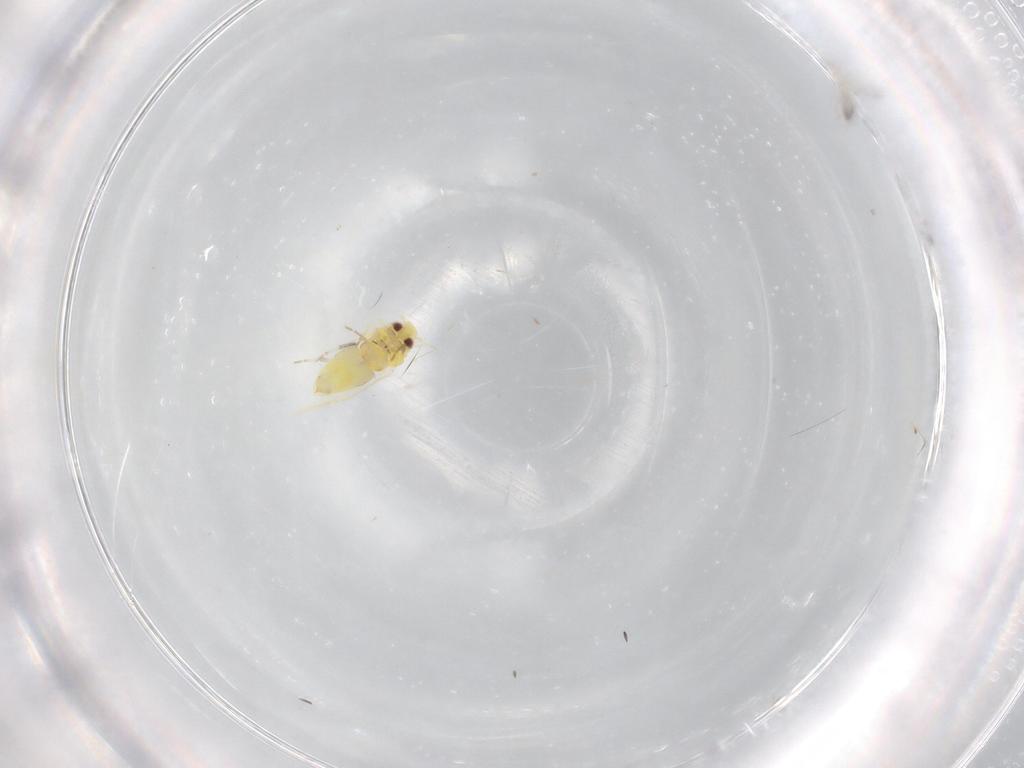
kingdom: Animalia
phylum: Arthropoda
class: Insecta
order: Hemiptera
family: Aleyrodidae
